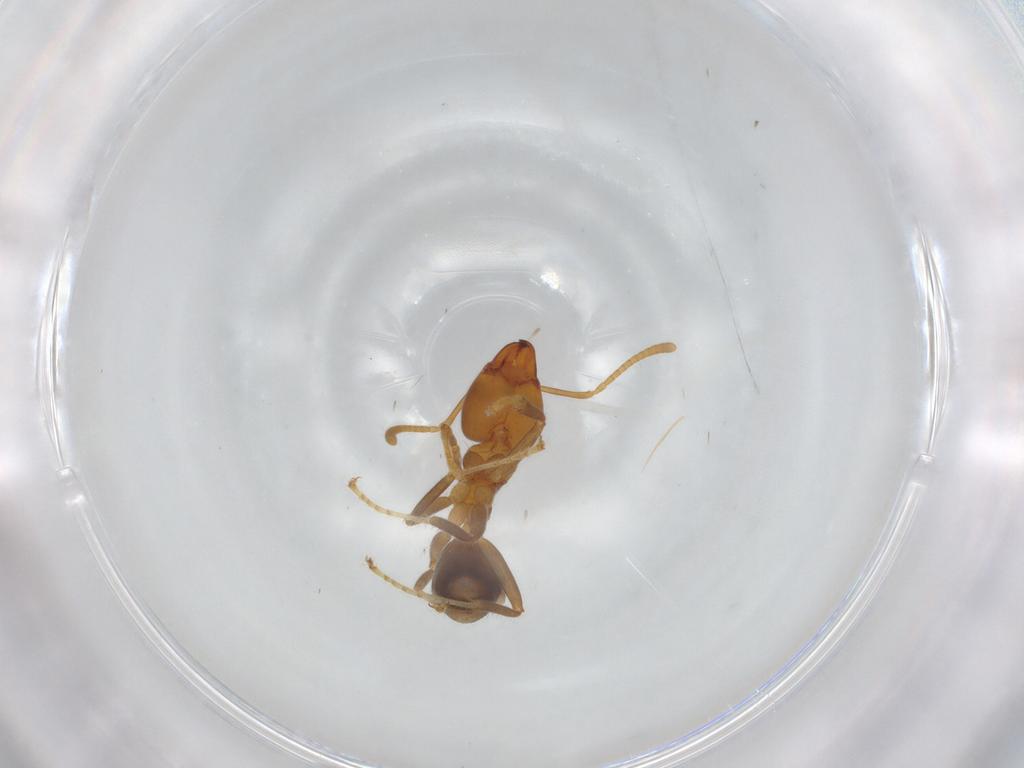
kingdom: Animalia
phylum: Arthropoda
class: Insecta
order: Hymenoptera
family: Formicidae
